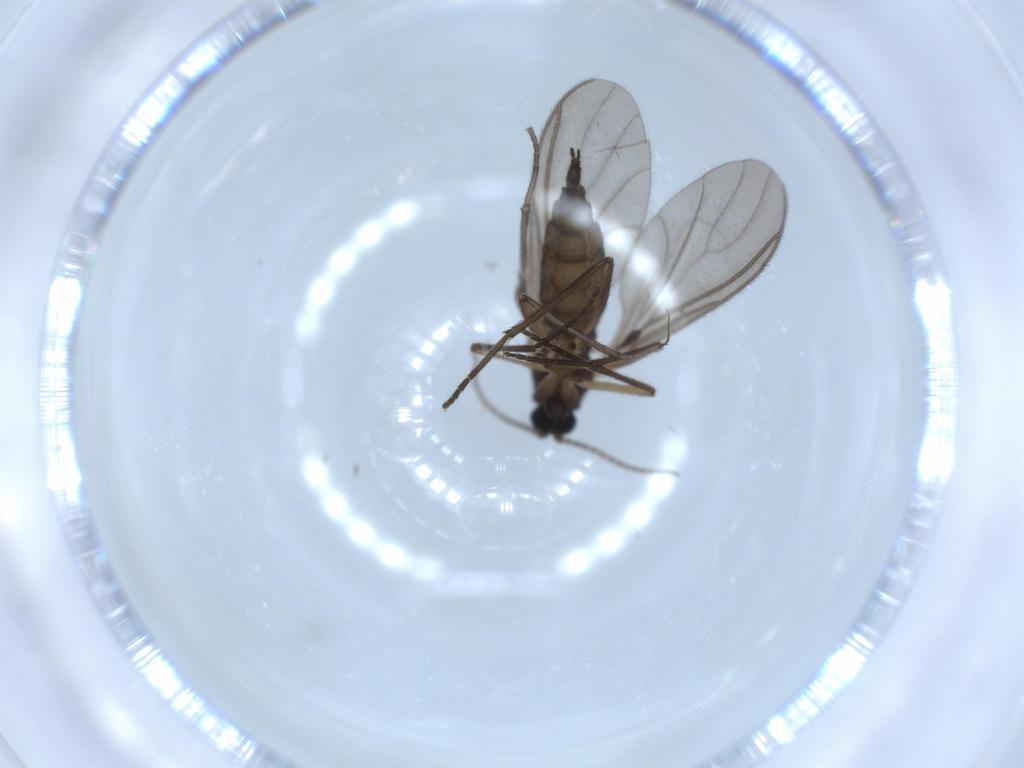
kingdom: Animalia
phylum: Arthropoda
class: Insecta
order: Diptera
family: Sciaridae
